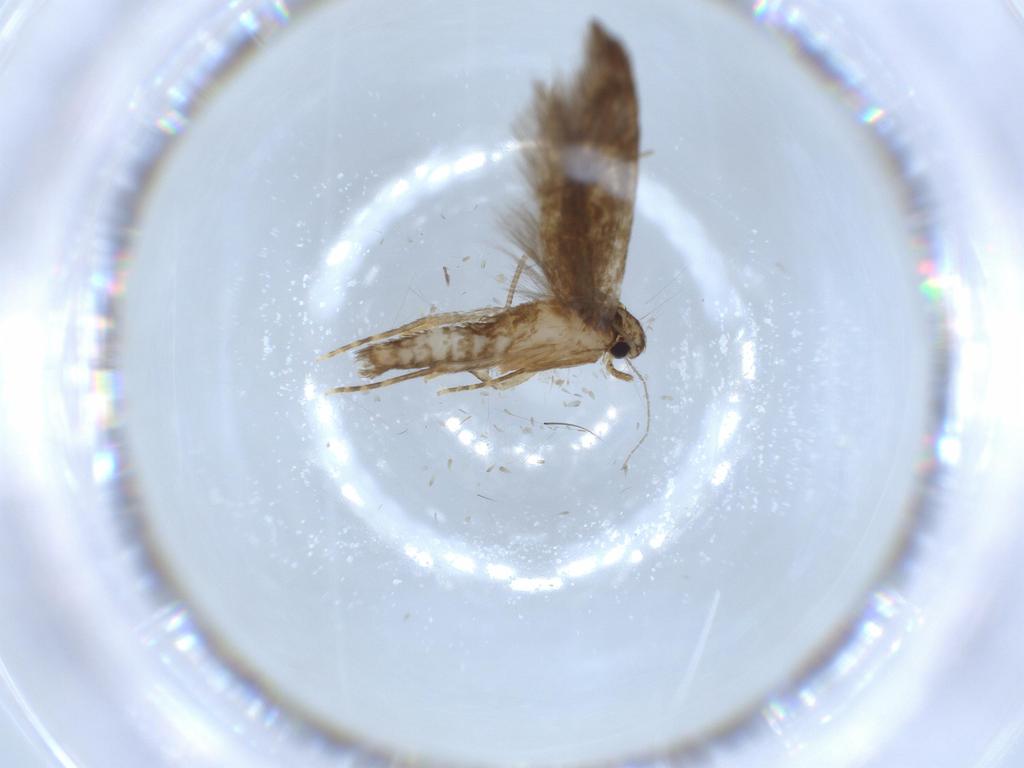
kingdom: Animalia
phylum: Arthropoda
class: Insecta
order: Lepidoptera
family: Tineidae
